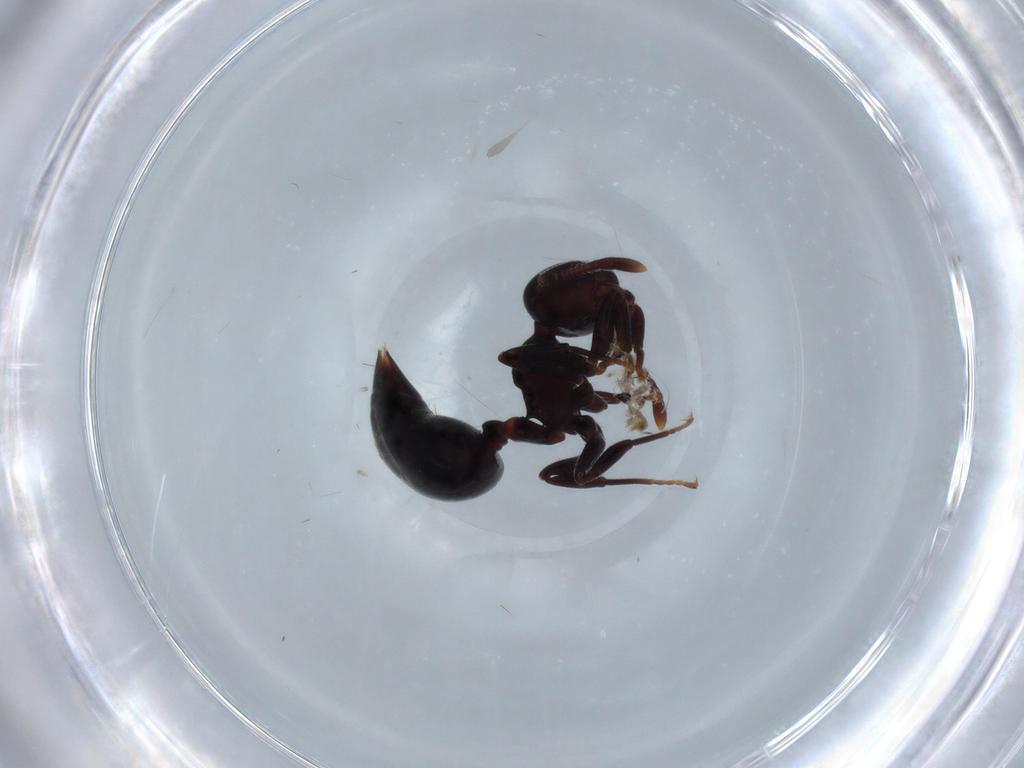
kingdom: Animalia
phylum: Arthropoda
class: Insecta
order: Hymenoptera
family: Formicidae
